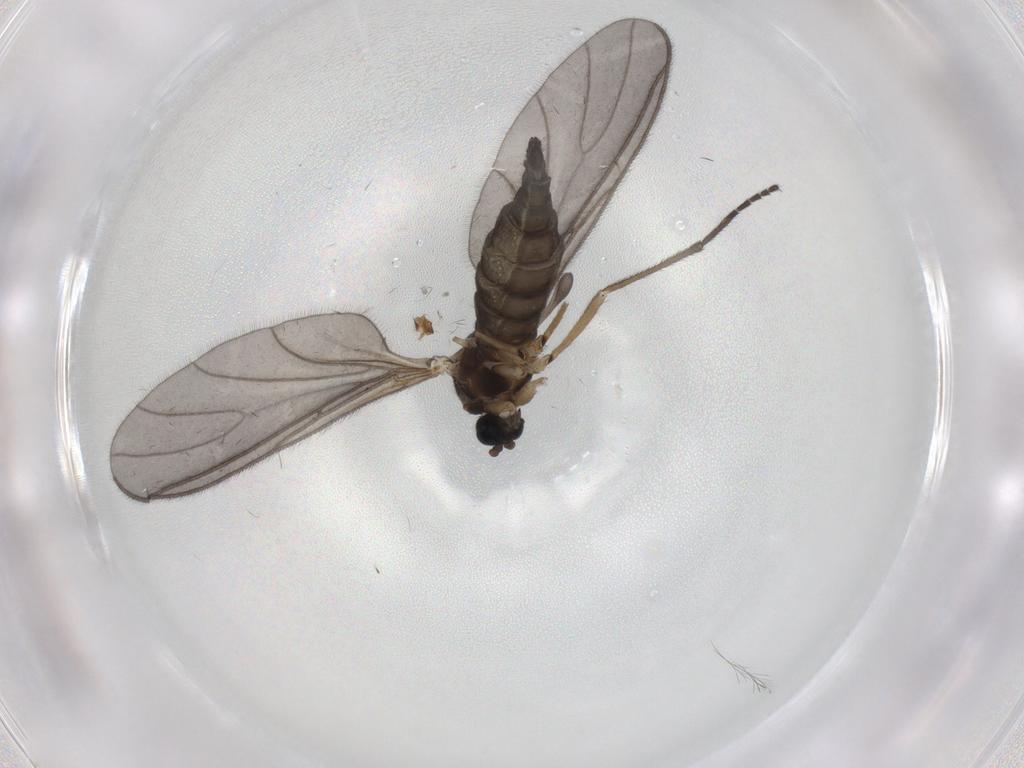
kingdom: Animalia
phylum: Arthropoda
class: Insecta
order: Diptera
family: Sciaridae
